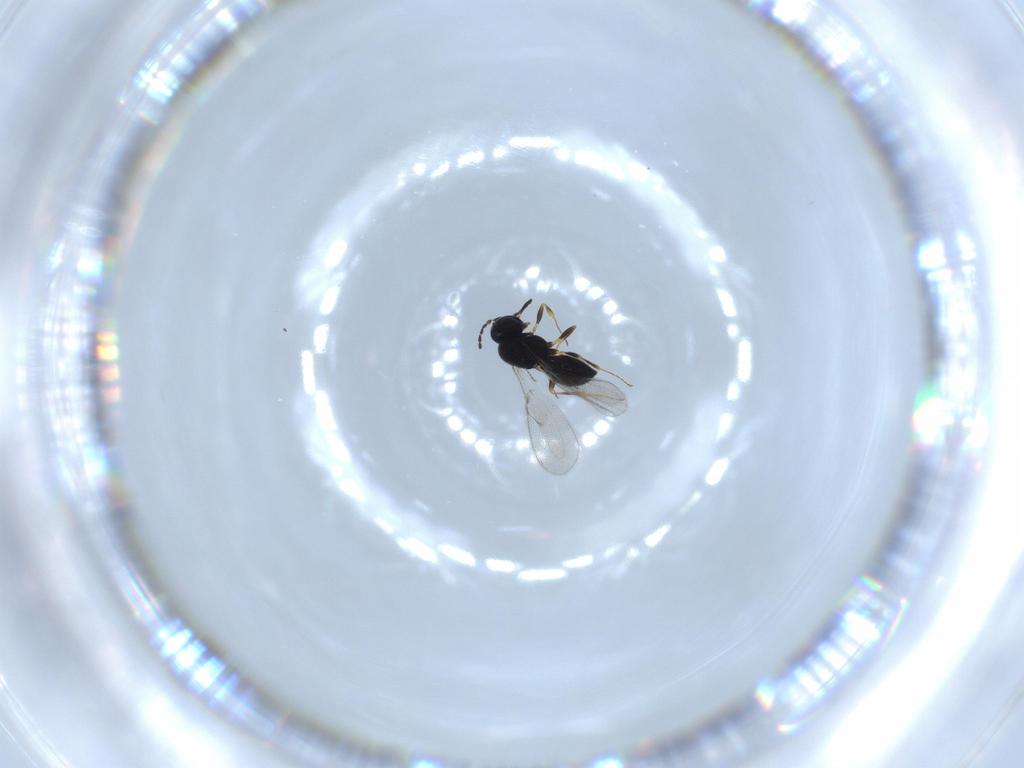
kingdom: Animalia
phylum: Arthropoda
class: Insecta
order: Hymenoptera
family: Scelionidae
